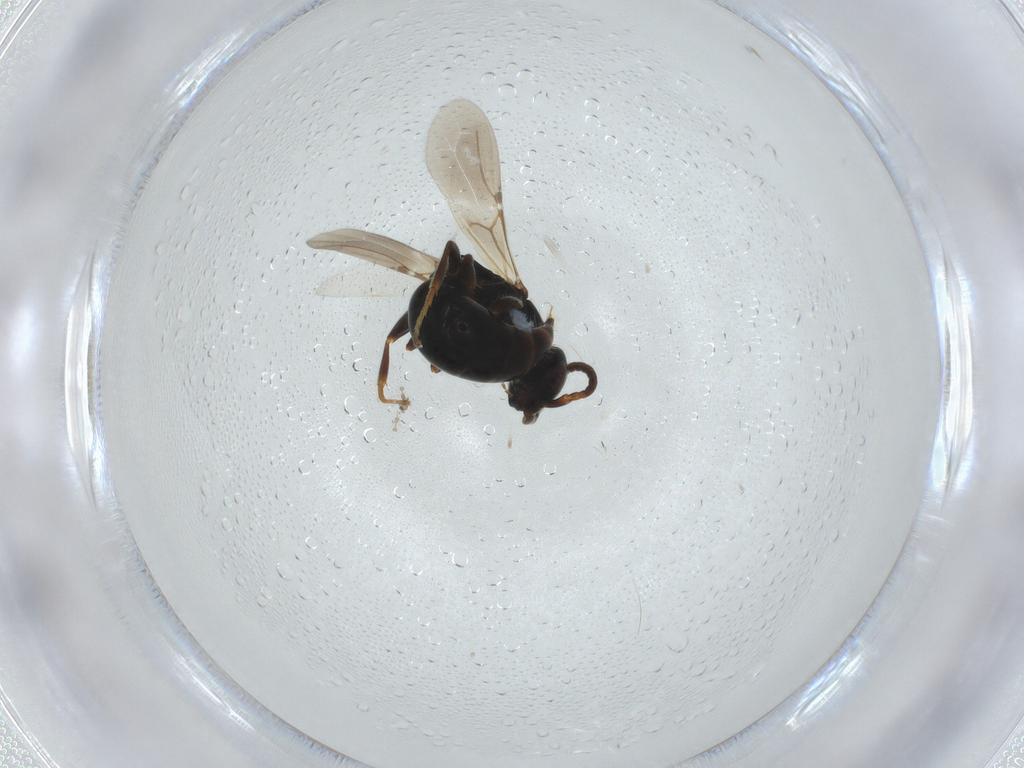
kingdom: Animalia
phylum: Arthropoda
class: Insecta
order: Hymenoptera
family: Bethylidae
